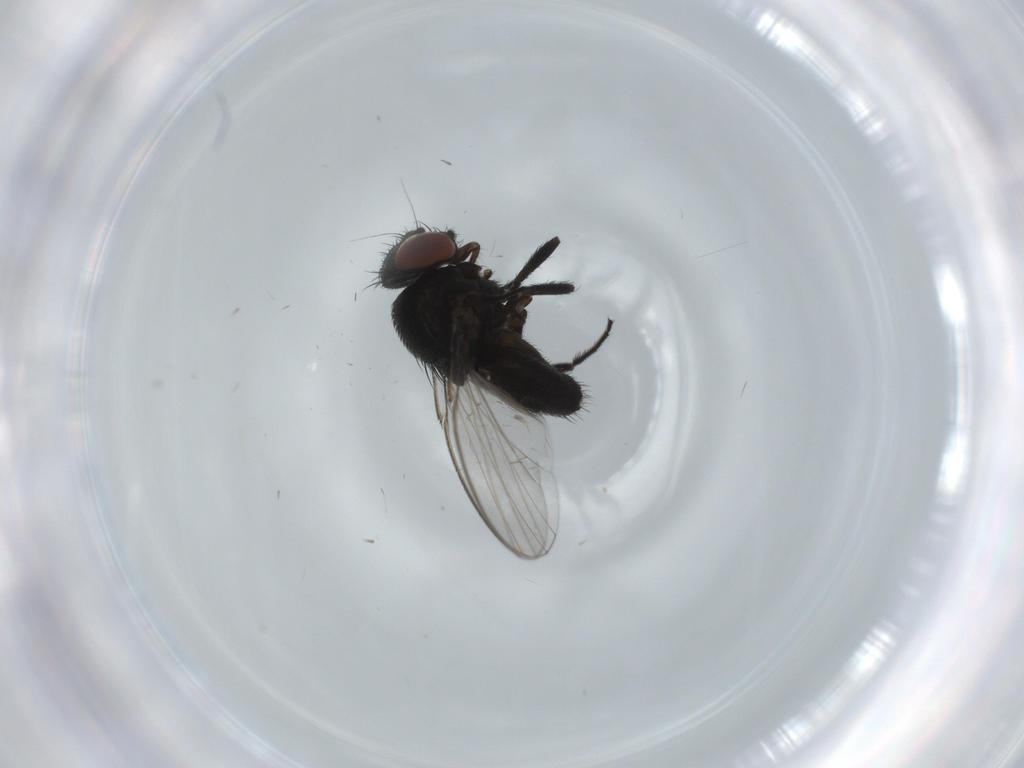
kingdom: Animalia
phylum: Arthropoda
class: Insecta
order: Diptera
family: Milichiidae
